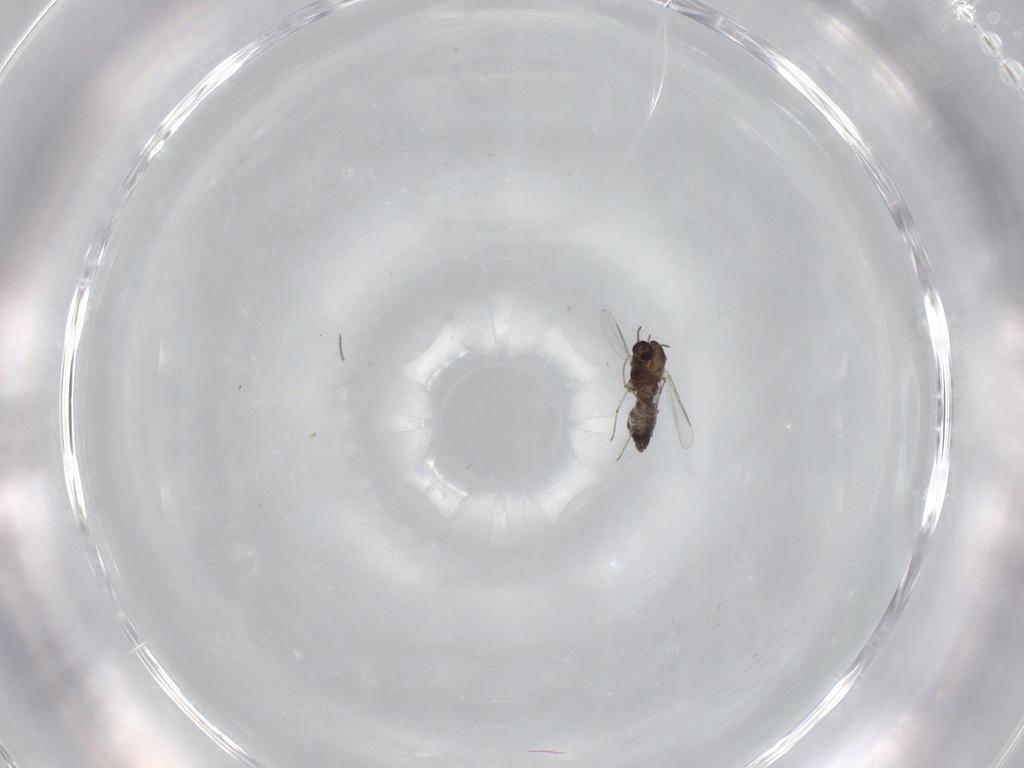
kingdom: Animalia
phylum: Arthropoda
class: Insecta
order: Diptera
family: Chironomidae
